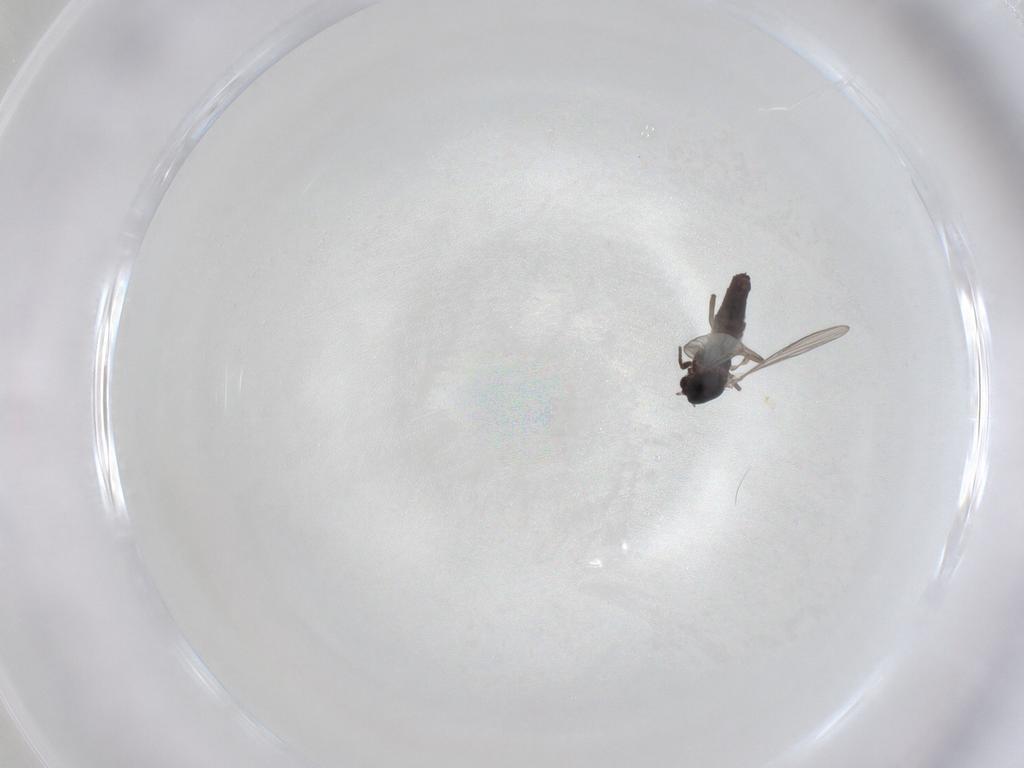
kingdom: Animalia
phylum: Arthropoda
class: Insecta
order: Diptera
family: Chironomidae
